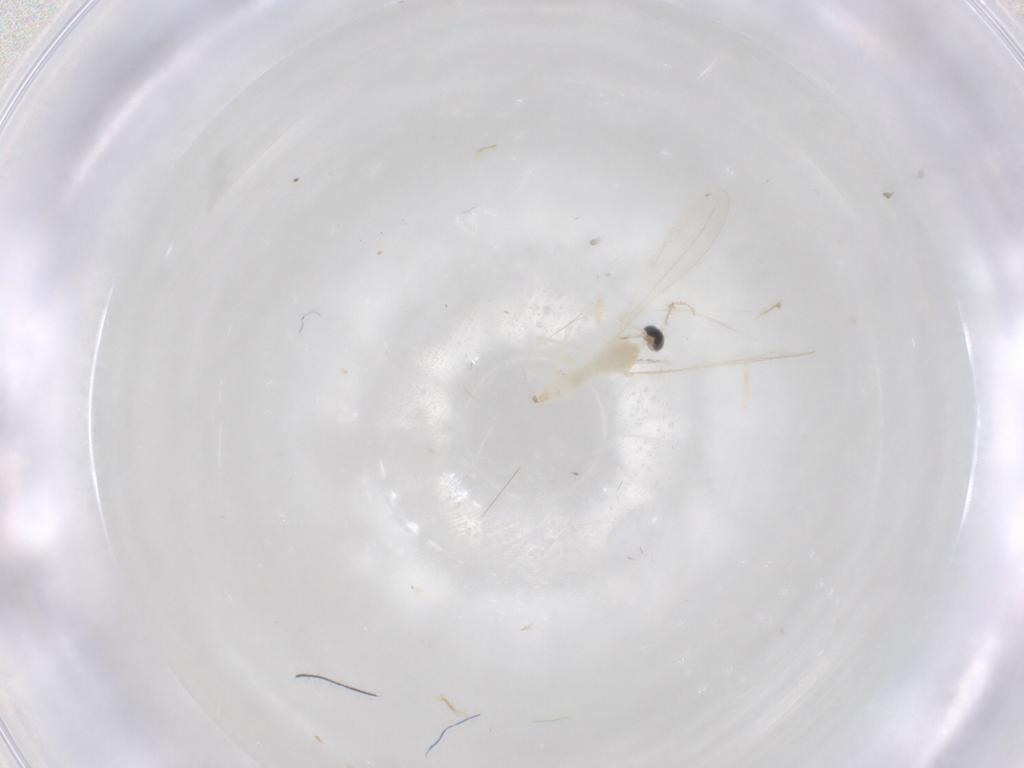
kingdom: Animalia
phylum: Arthropoda
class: Insecta
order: Diptera
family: Cecidomyiidae
